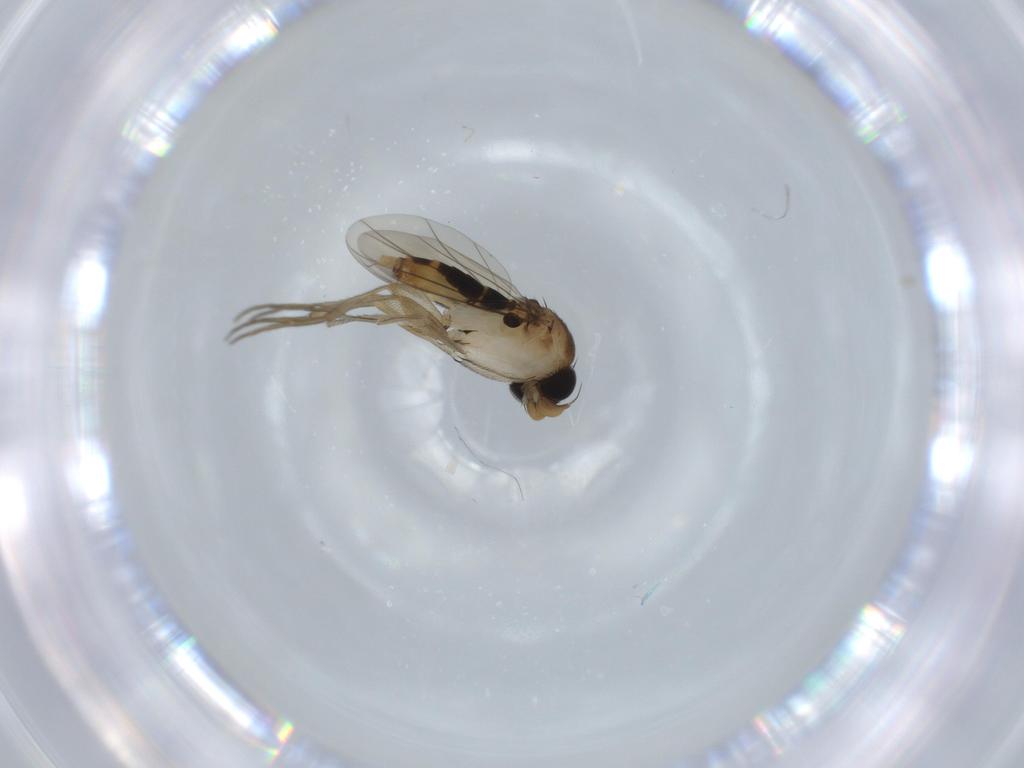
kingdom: Animalia
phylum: Arthropoda
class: Insecta
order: Diptera
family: Phoridae
